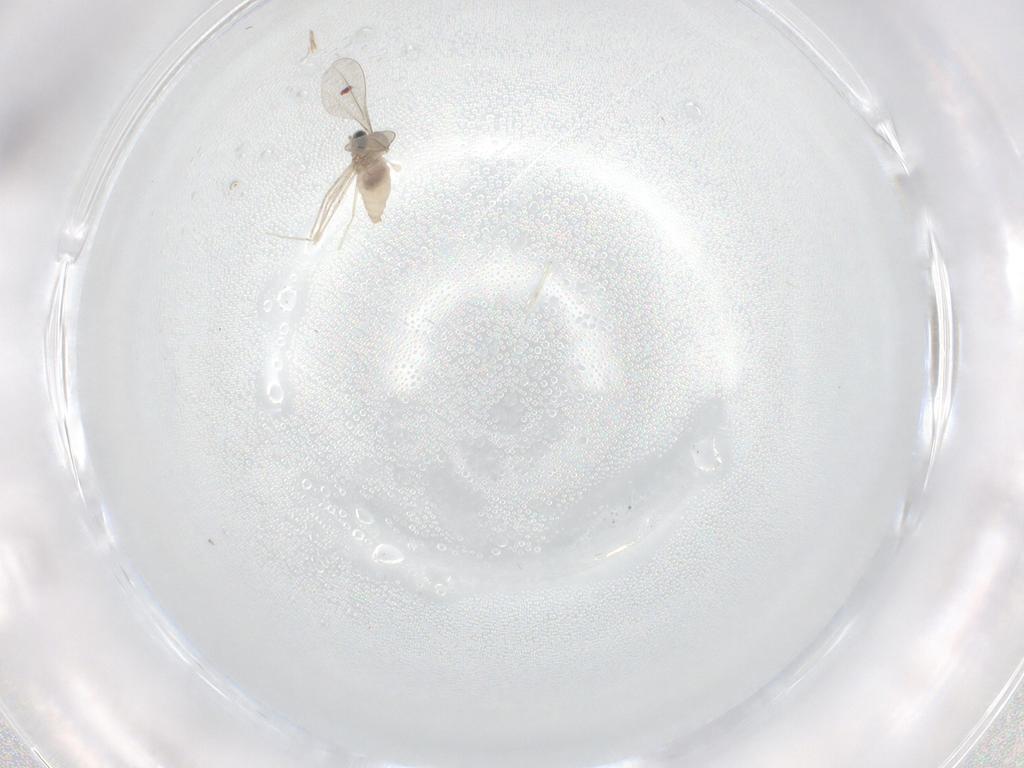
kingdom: Animalia
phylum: Arthropoda
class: Insecta
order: Diptera
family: Cecidomyiidae
